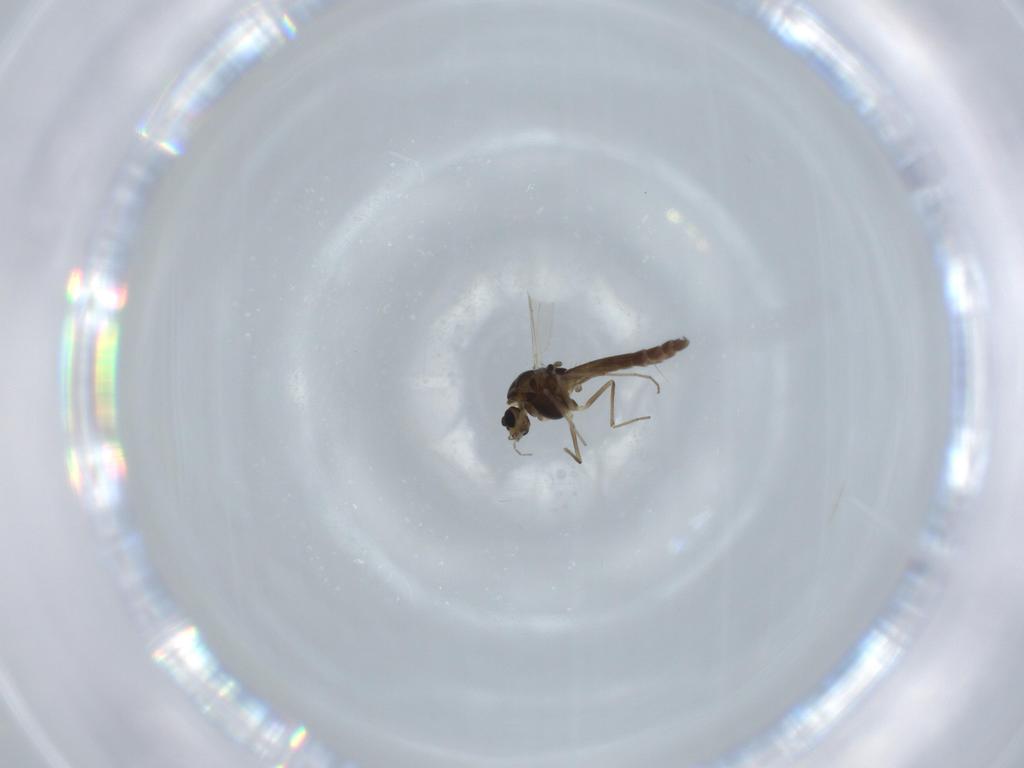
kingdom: Animalia
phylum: Arthropoda
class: Insecta
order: Diptera
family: Chironomidae
